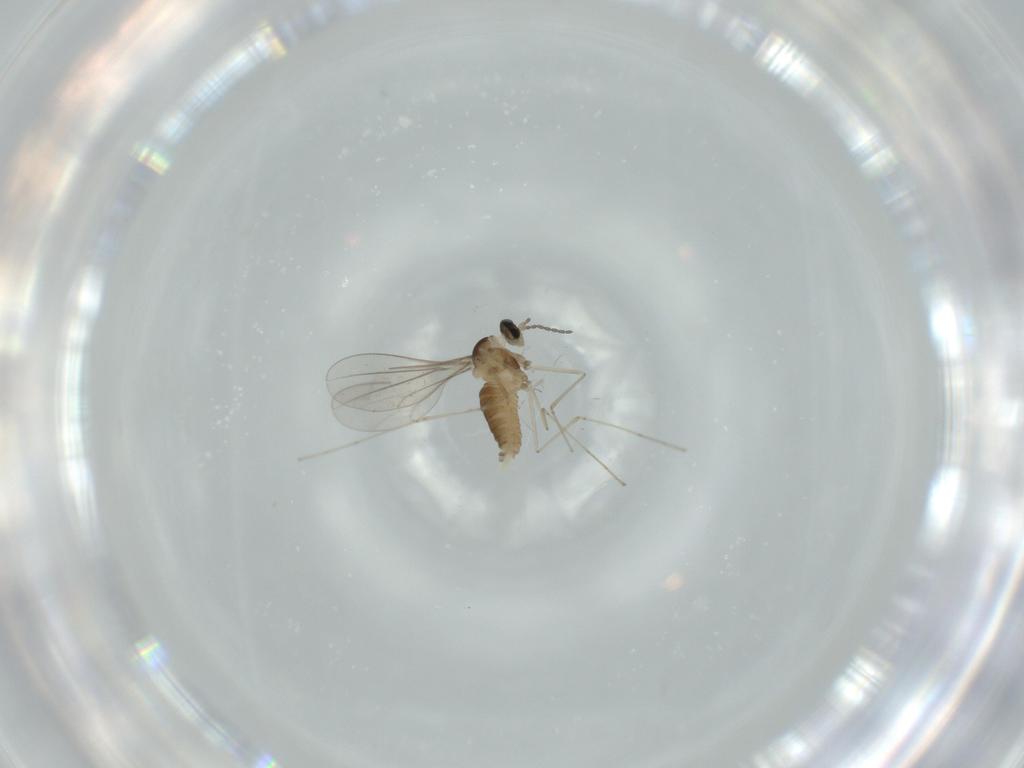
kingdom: Animalia
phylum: Arthropoda
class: Insecta
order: Diptera
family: Cecidomyiidae
